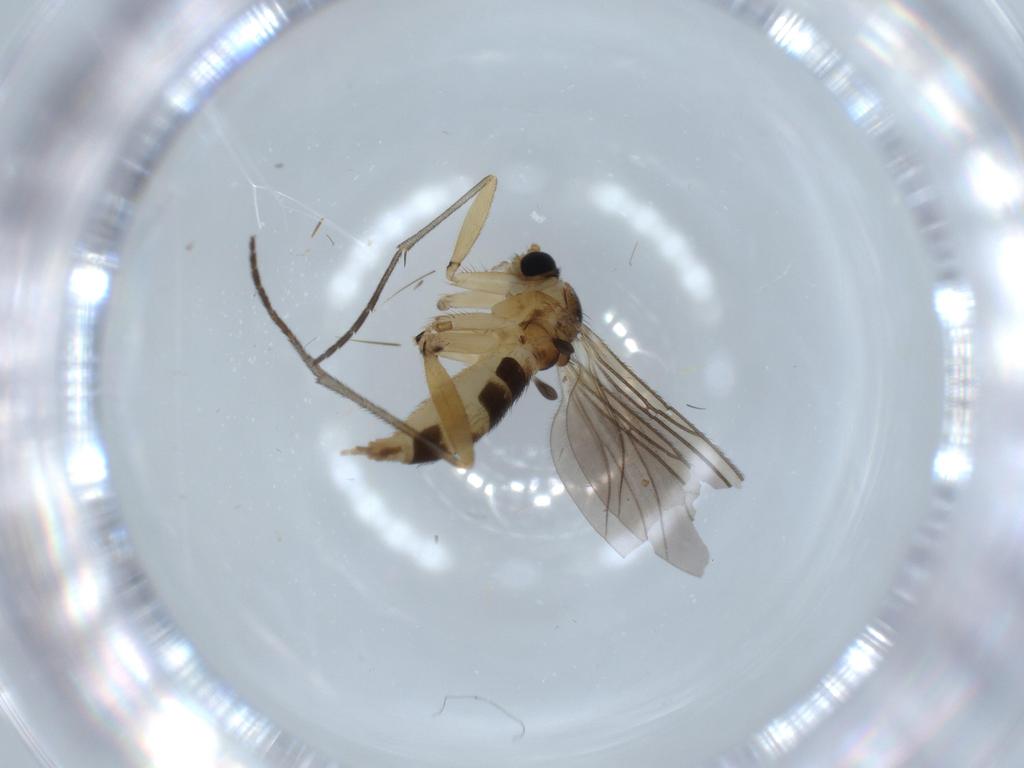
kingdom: Animalia
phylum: Arthropoda
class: Insecta
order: Diptera
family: Sciaridae
